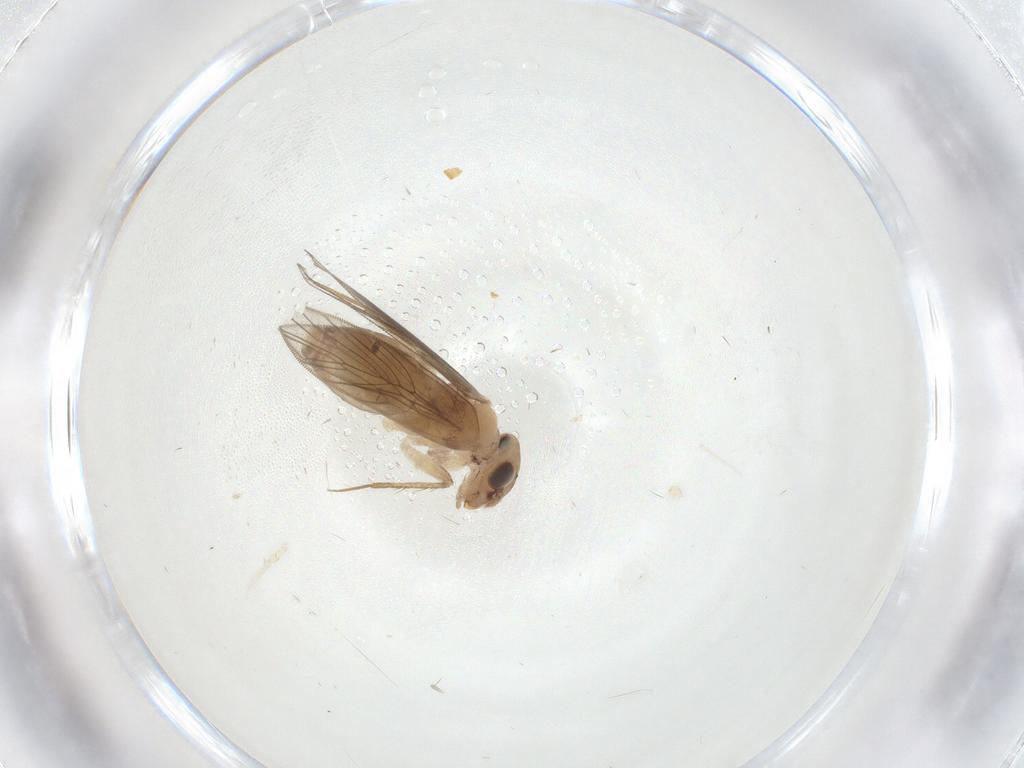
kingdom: Animalia
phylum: Arthropoda
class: Insecta
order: Psocodea
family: Lepidopsocidae
